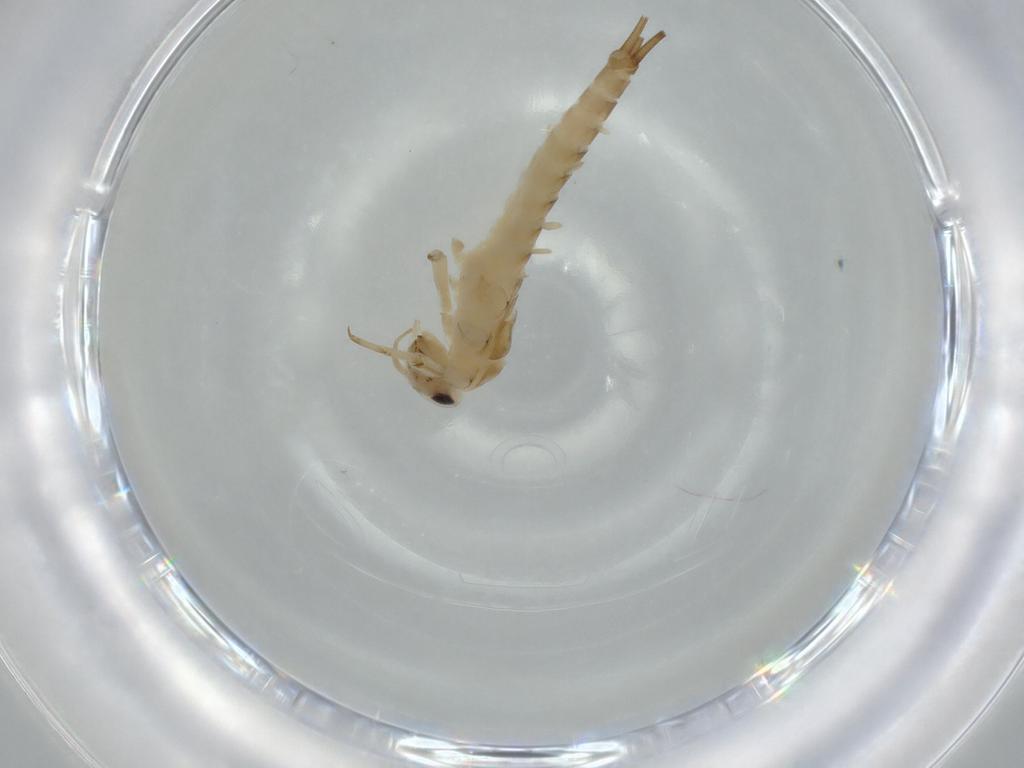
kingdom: Animalia
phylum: Arthropoda
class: Insecta
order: Ephemeroptera
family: Baetidae
